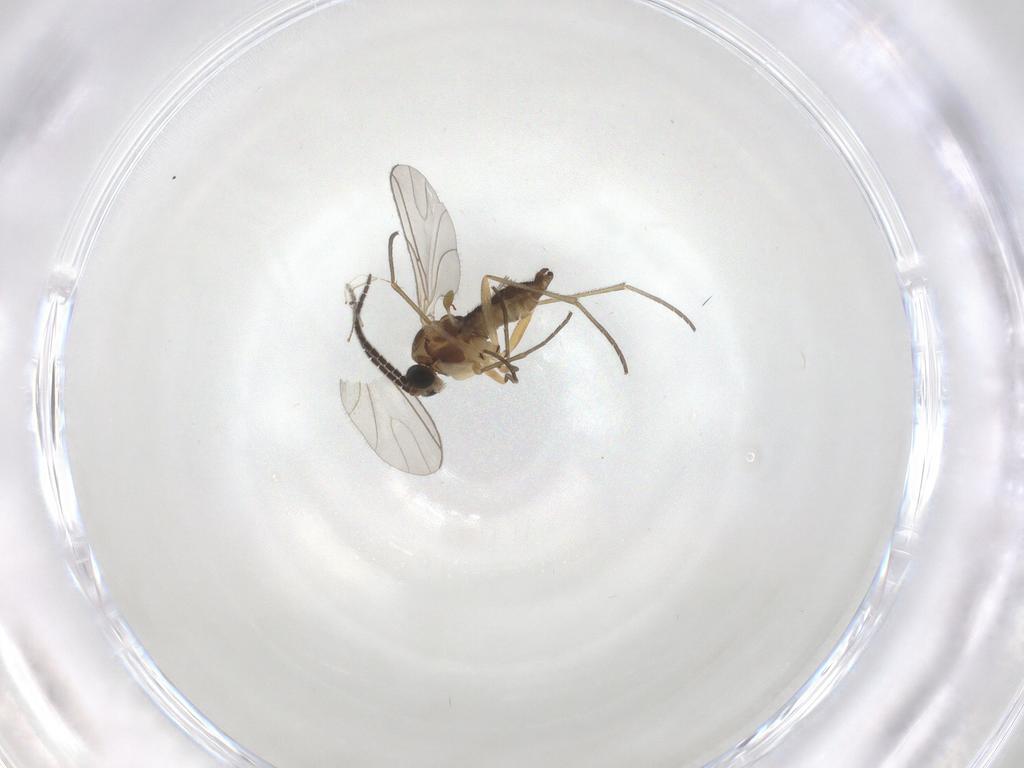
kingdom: Animalia
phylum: Arthropoda
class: Insecta
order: Diptera
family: Sciaridae
